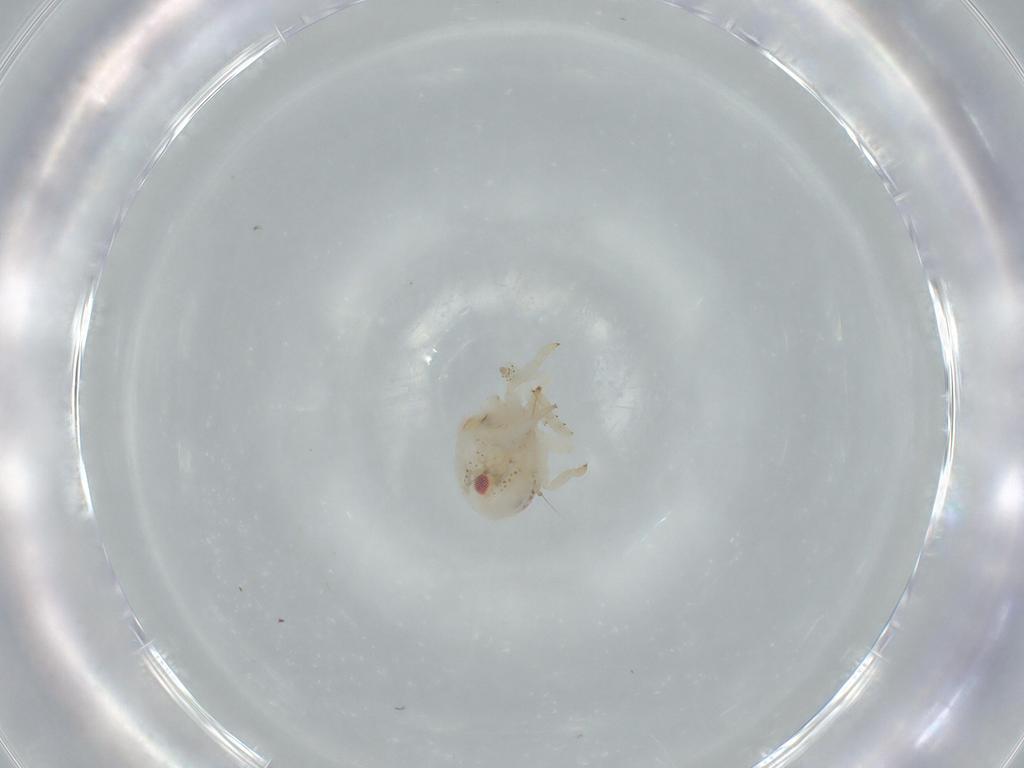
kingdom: Animalia
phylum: Arthropoda
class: Insecta
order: Hemiptera
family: Acanaloniidae
